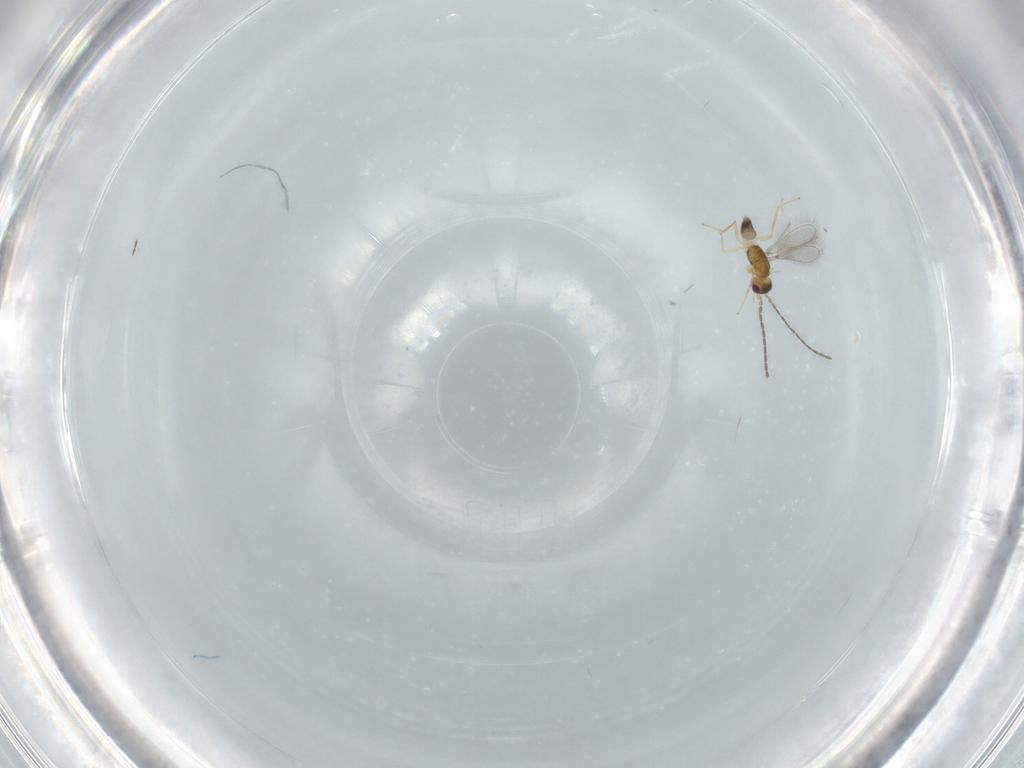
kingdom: Animalia
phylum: Arthropoda
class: Insecta
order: Hymenoptera
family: Mymaridae
